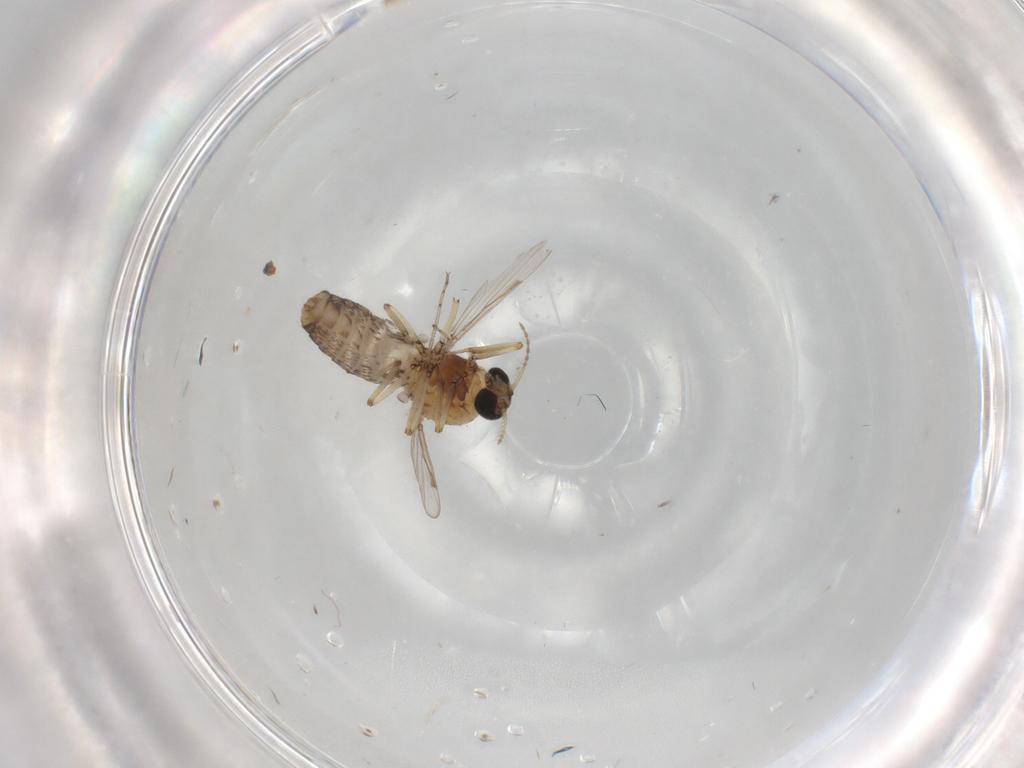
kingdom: Animalia
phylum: Arthropoda
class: Insecta
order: Diptera
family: Ceratopogonidae
